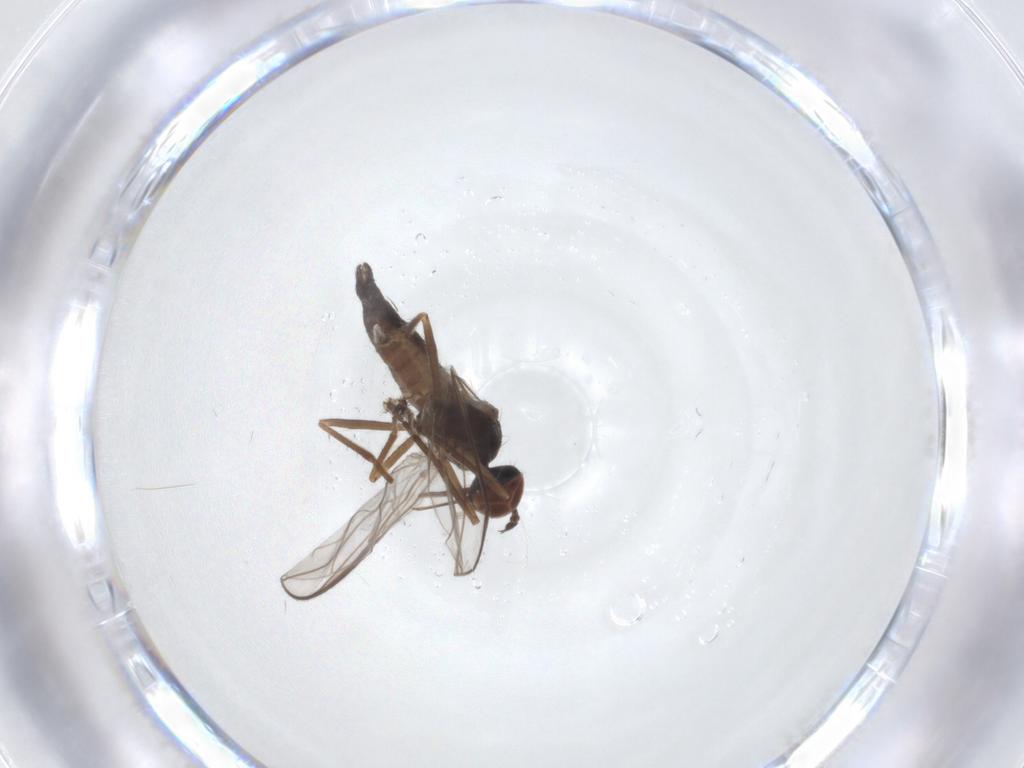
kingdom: Animalia
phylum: Arthropoda
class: Insecta
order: Diptera
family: Empididae
